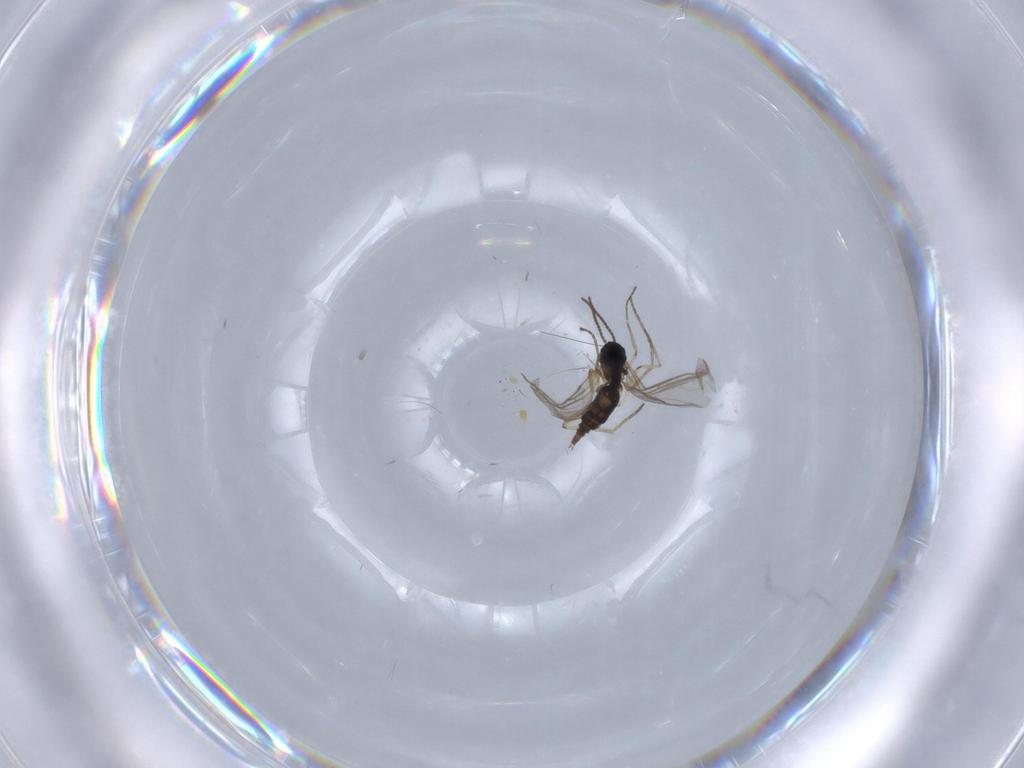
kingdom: Animalia
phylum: Arthropoda
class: Insecta
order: Diptera
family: Sciaridae
